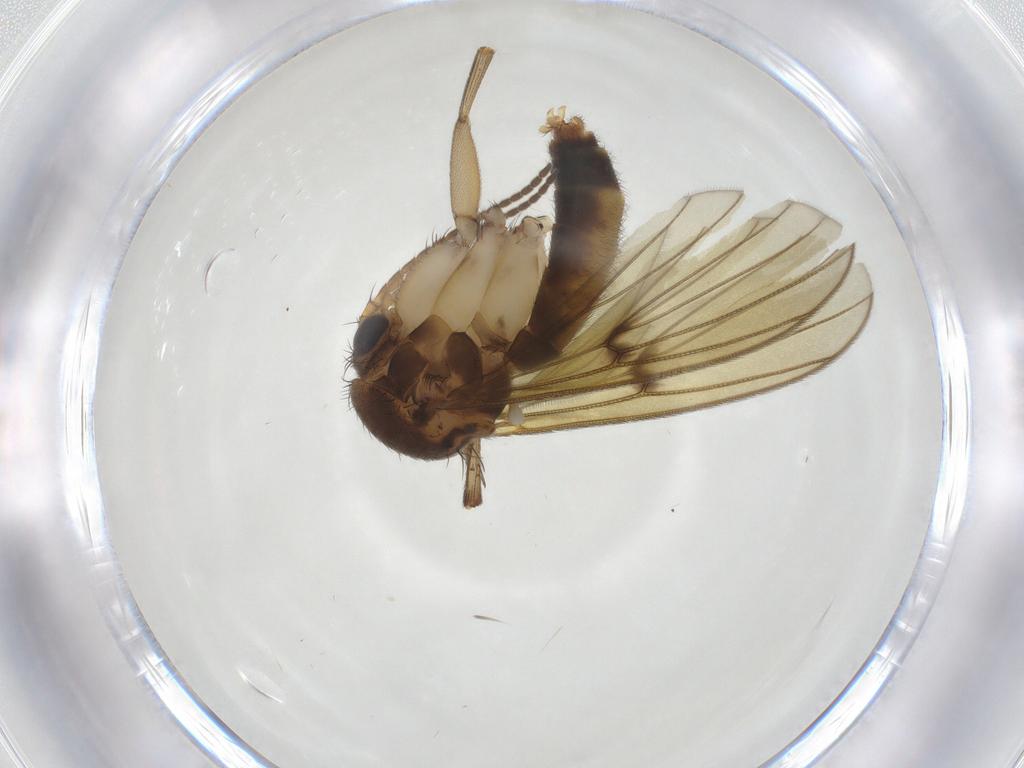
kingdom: Animalia
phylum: Arthropoda
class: Insecta
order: Diptera
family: Mycetophilidae
